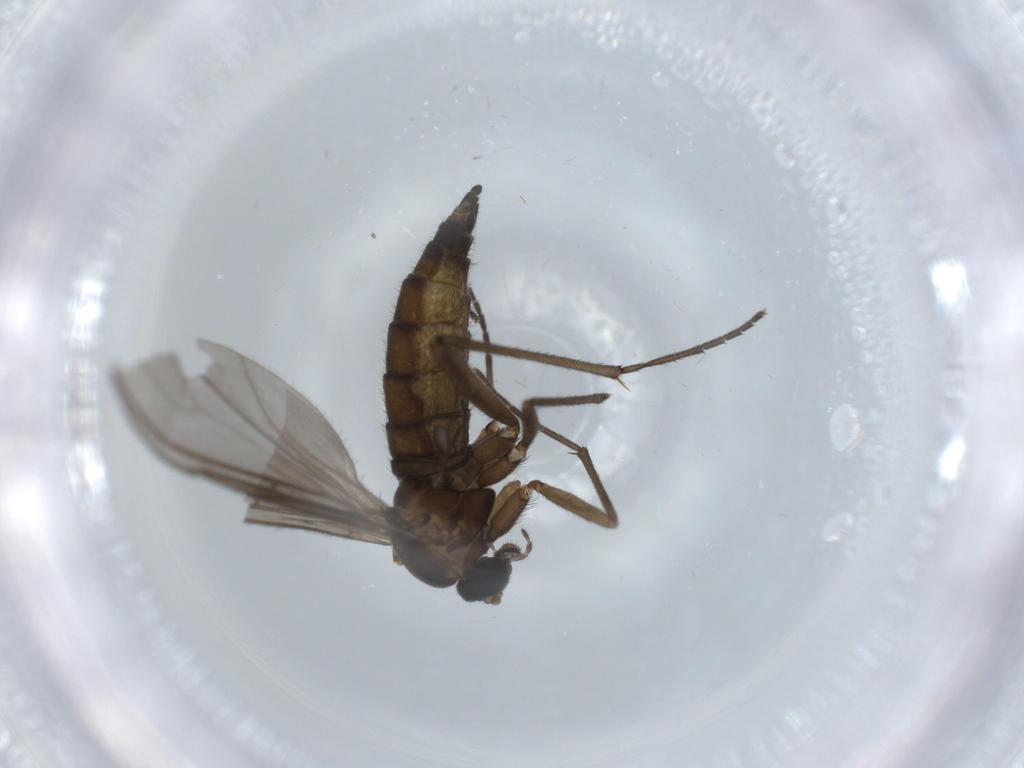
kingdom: Animalia
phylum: Arthropoda
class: Insecta
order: Diptera
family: Sciaridae
